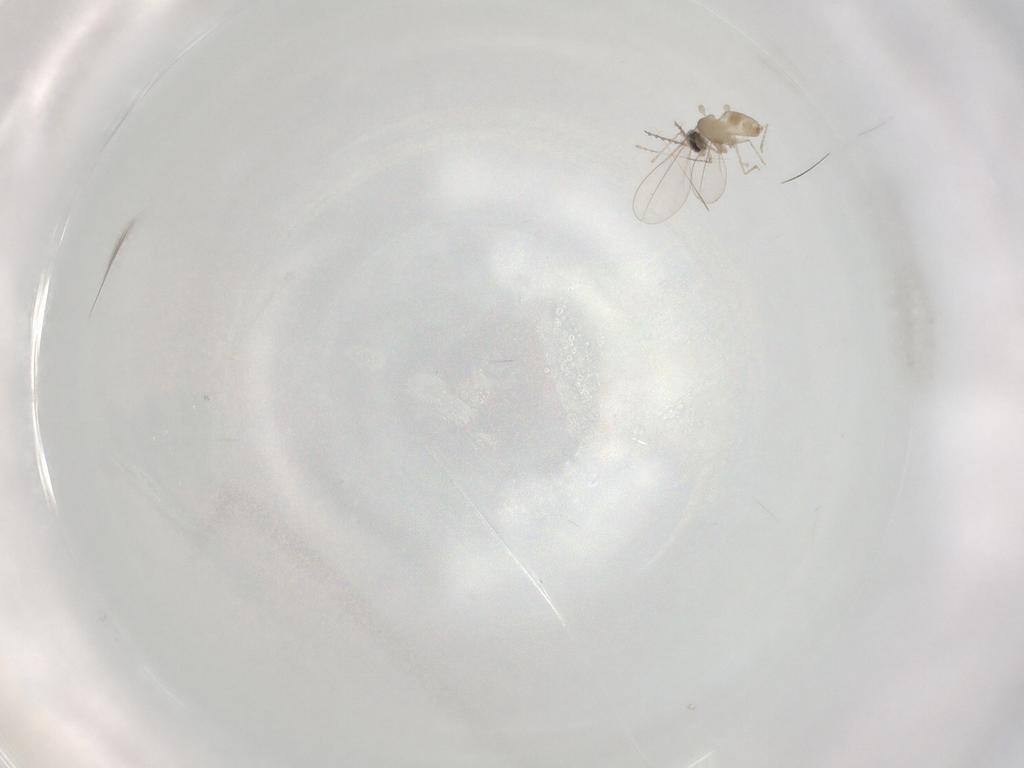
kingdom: Animalia
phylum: Arthropoda
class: Insecta
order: Diptera
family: Cecidomyiidae
